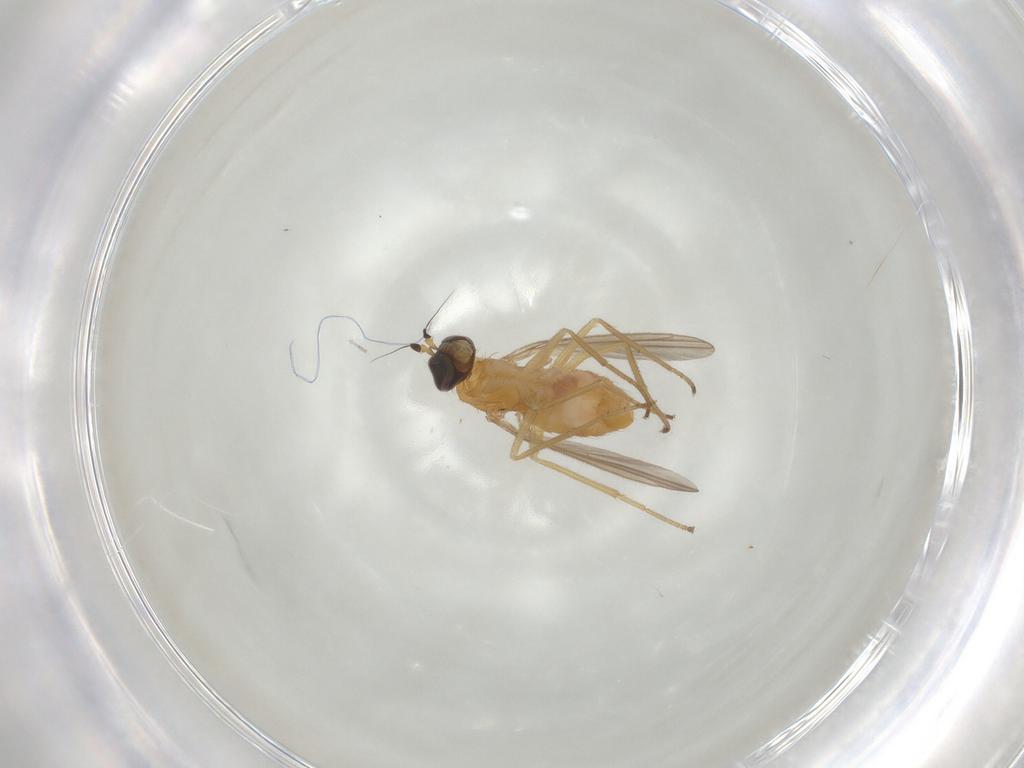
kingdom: Animalia
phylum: Arthropoda
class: Insecta
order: Diptera
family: Dolichopodidae
